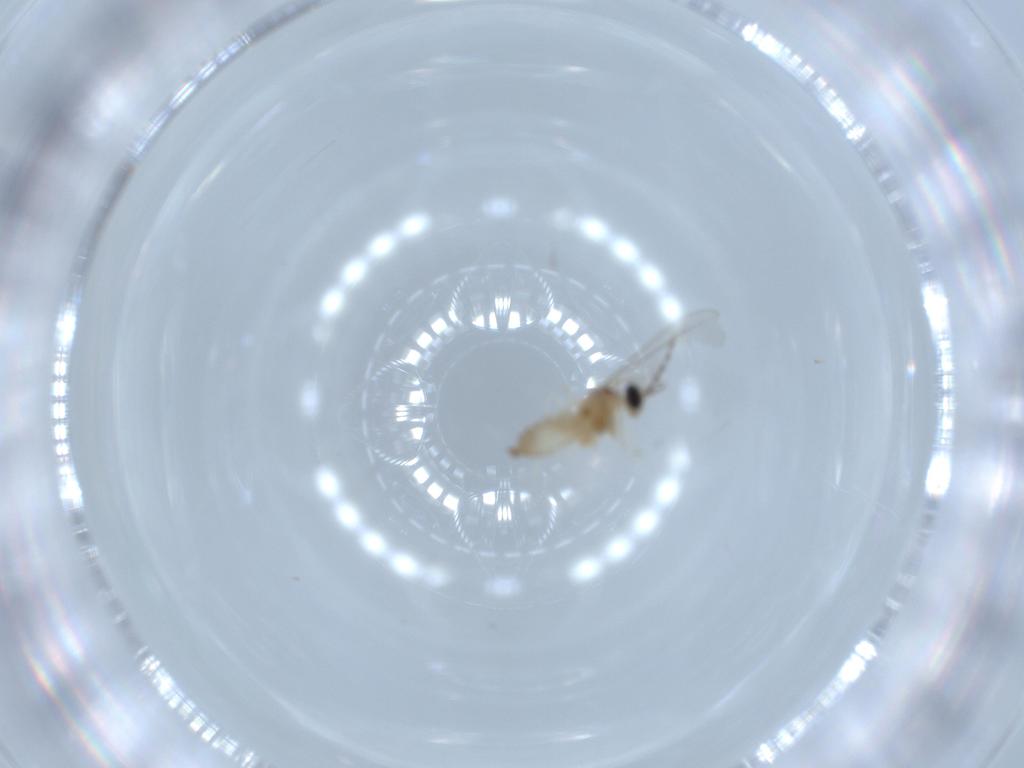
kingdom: Animalia
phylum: Arthropoda
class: Insecta
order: Diptera
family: Cecidomyiidae
